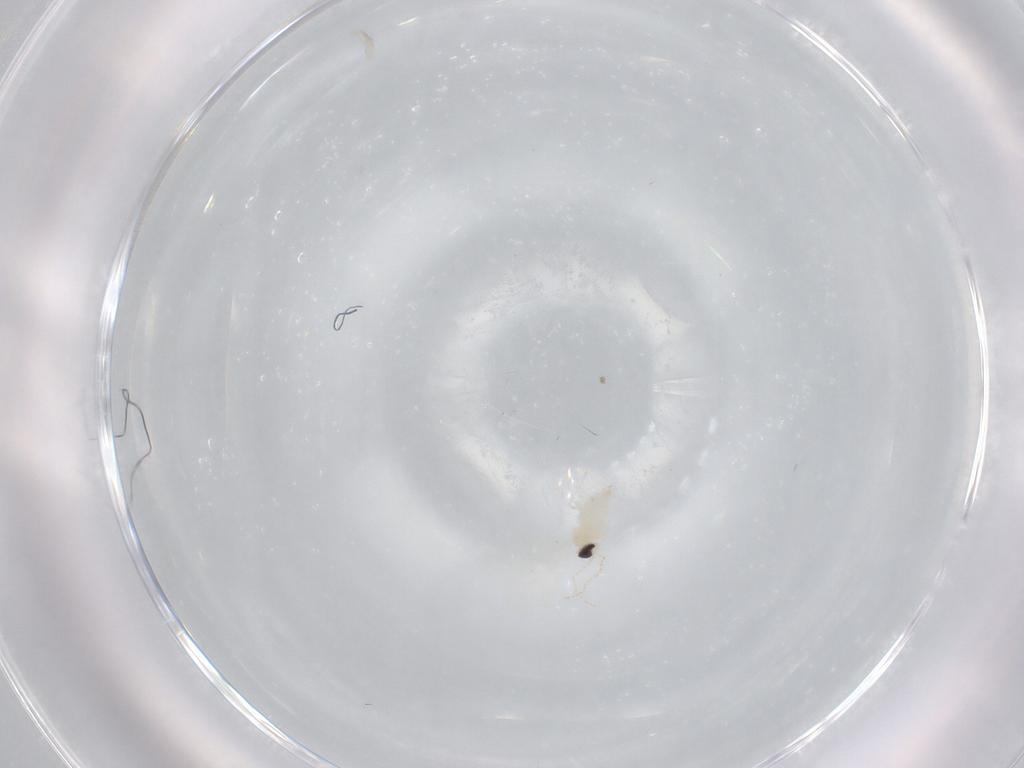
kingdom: Animalia
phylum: Arthropoda
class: Insecta
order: Diptera
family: Cecidomyiidae
